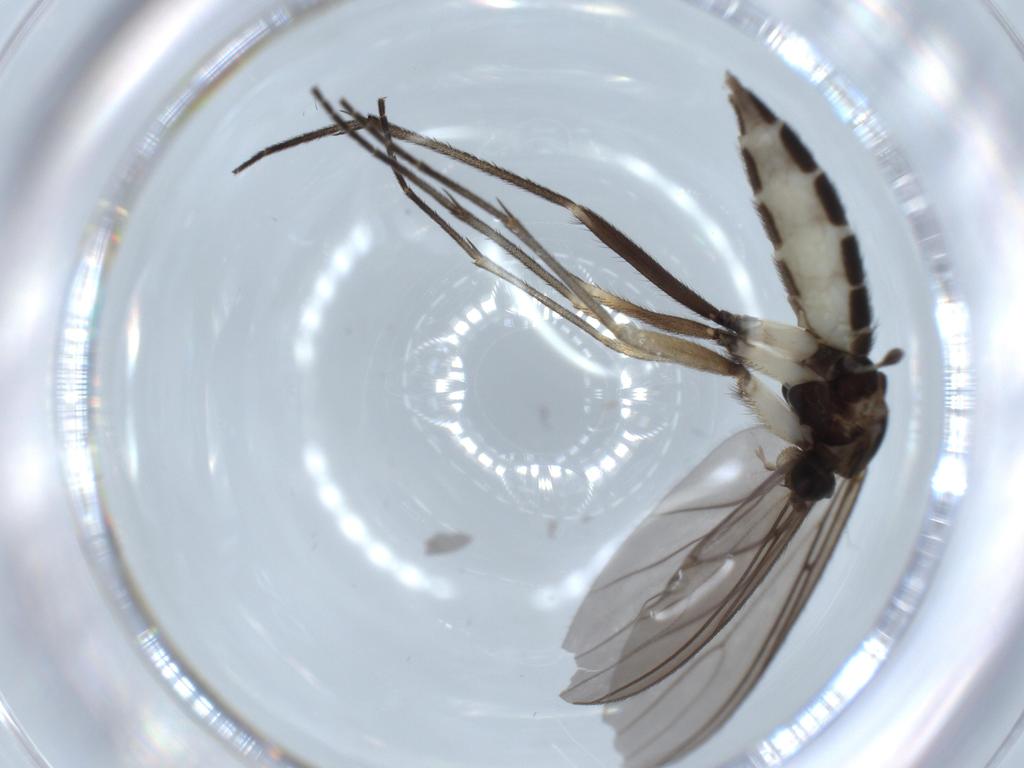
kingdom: Animalia
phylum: Arthropoda
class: Insecta
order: Diptera
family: Sciaridae
